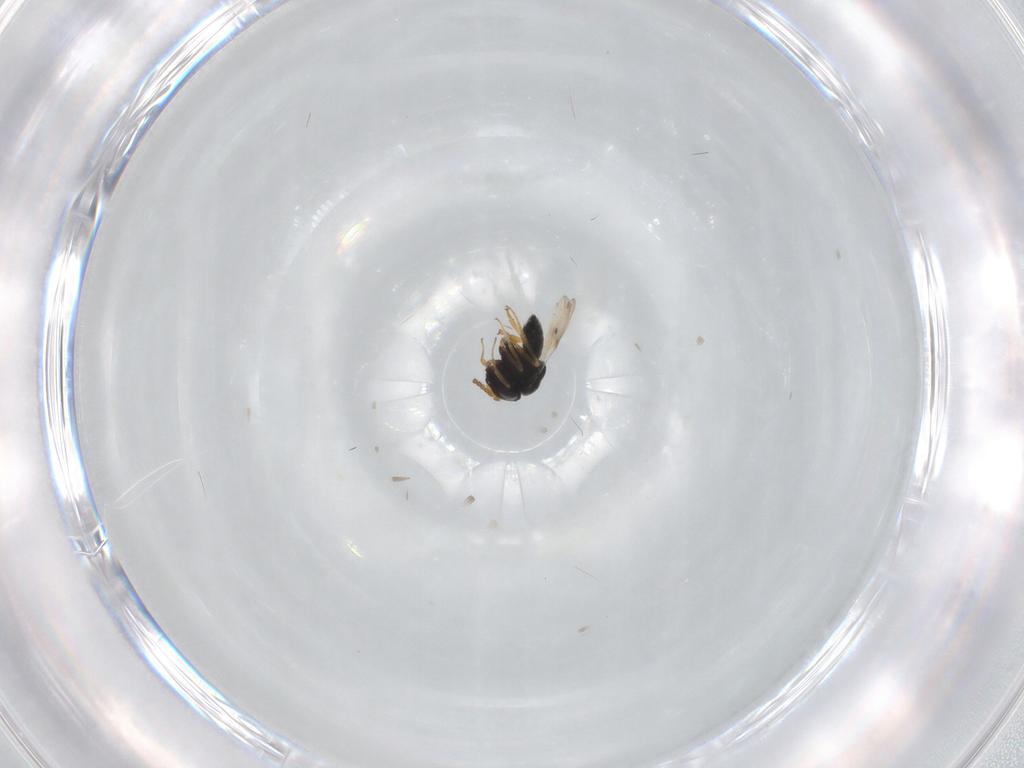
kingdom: Animalia
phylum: Arthropoda
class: Insecta
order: Hymenoptera
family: Scelionidae
